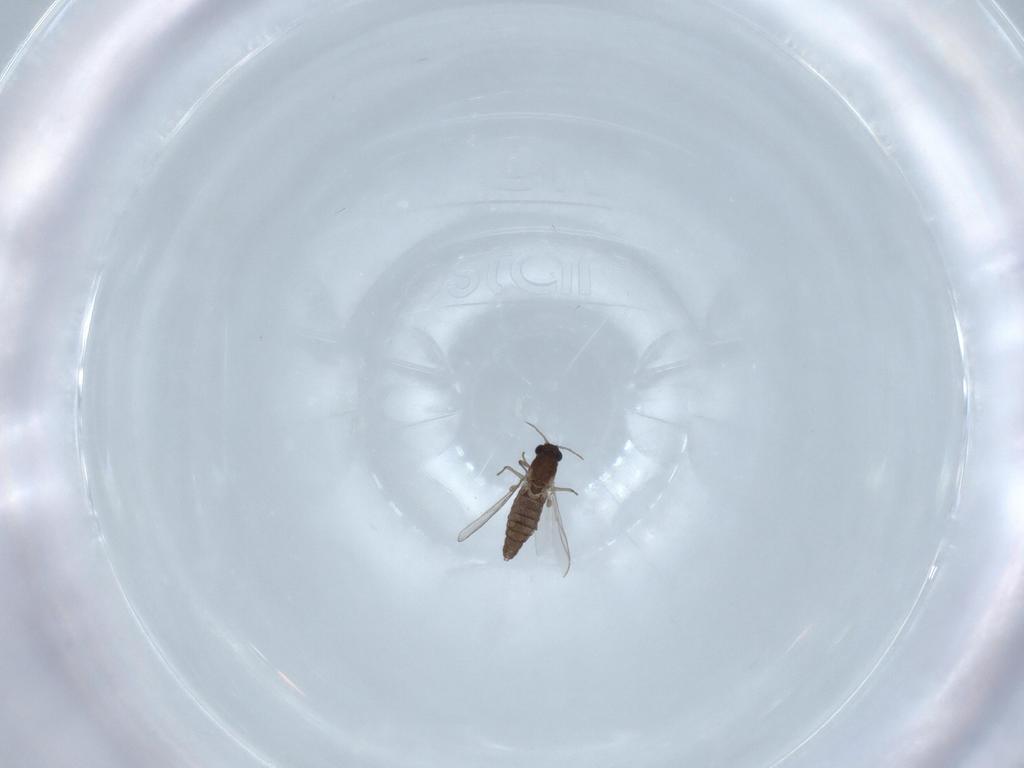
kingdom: Animalia
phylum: Arthropoda
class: Insecta
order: Diptera
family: Chironomidae
